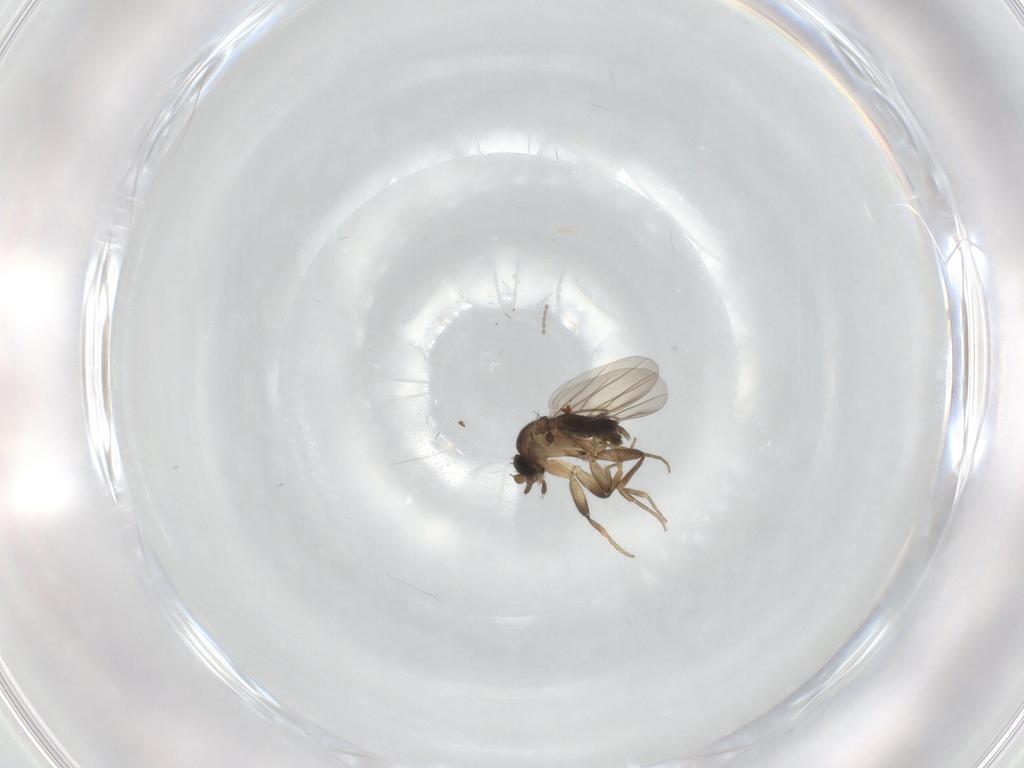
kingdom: Animalia
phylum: Arthropoda
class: Insecta
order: Diptera
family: Phoridae
